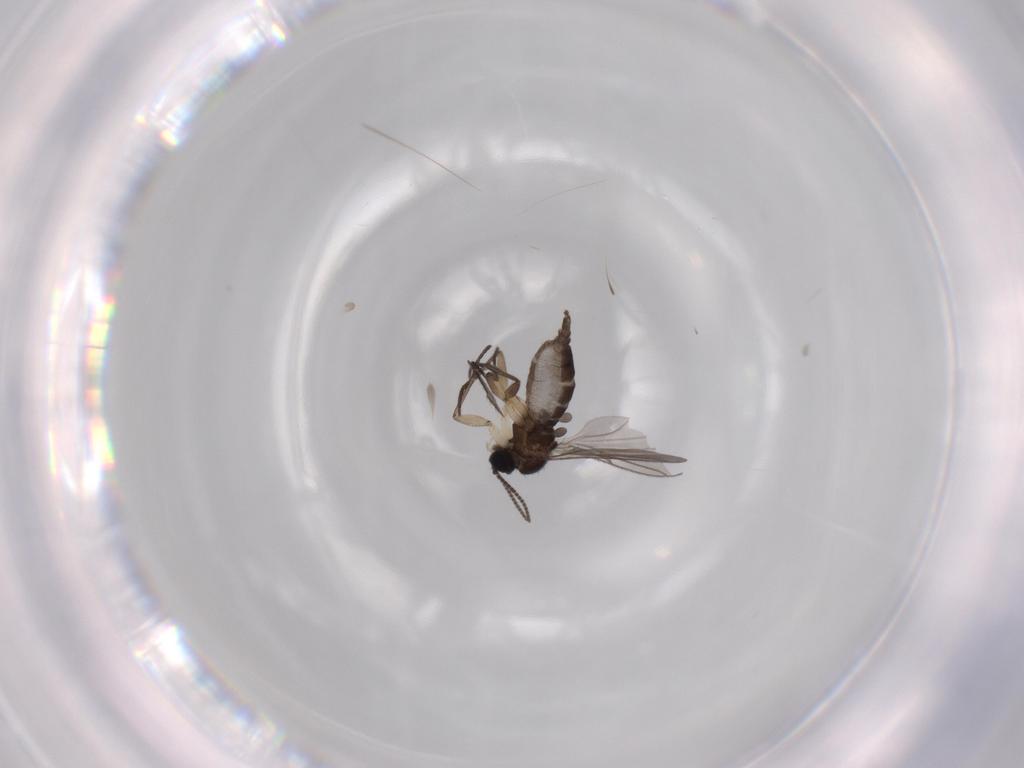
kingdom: Animalia
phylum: Arthropoda
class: Insecta
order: Diptera
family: Sciaridae
